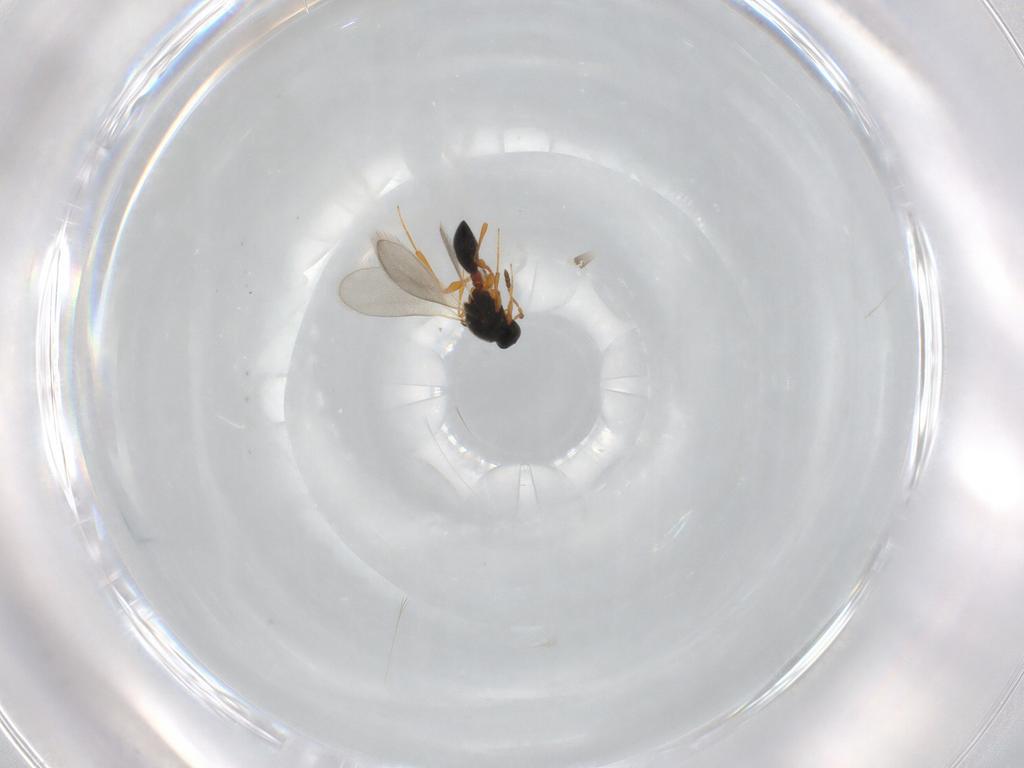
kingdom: Animalia
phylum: Arthropoda
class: Insecta
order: Hymenoptera
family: Platygastridae
